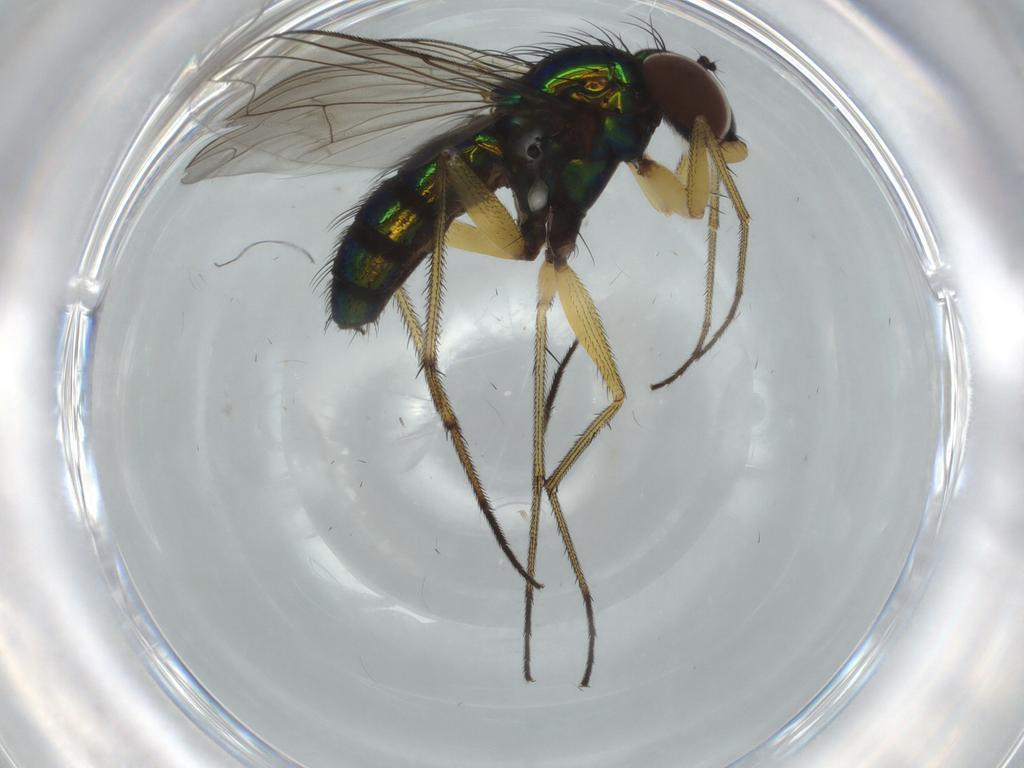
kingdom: Animalia
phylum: Arthropoda
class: Insecta
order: Diptera
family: Dolichopodidae
